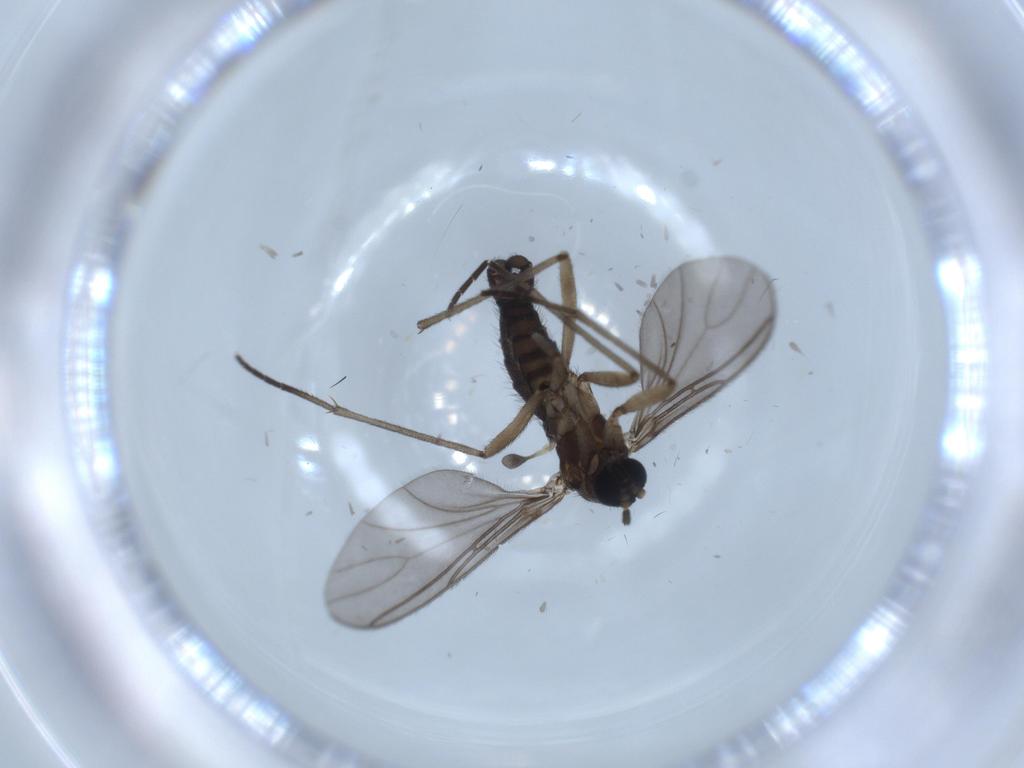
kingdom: Animalia
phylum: Arthropoda
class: Insecta
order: Diptera
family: Sciaridae
